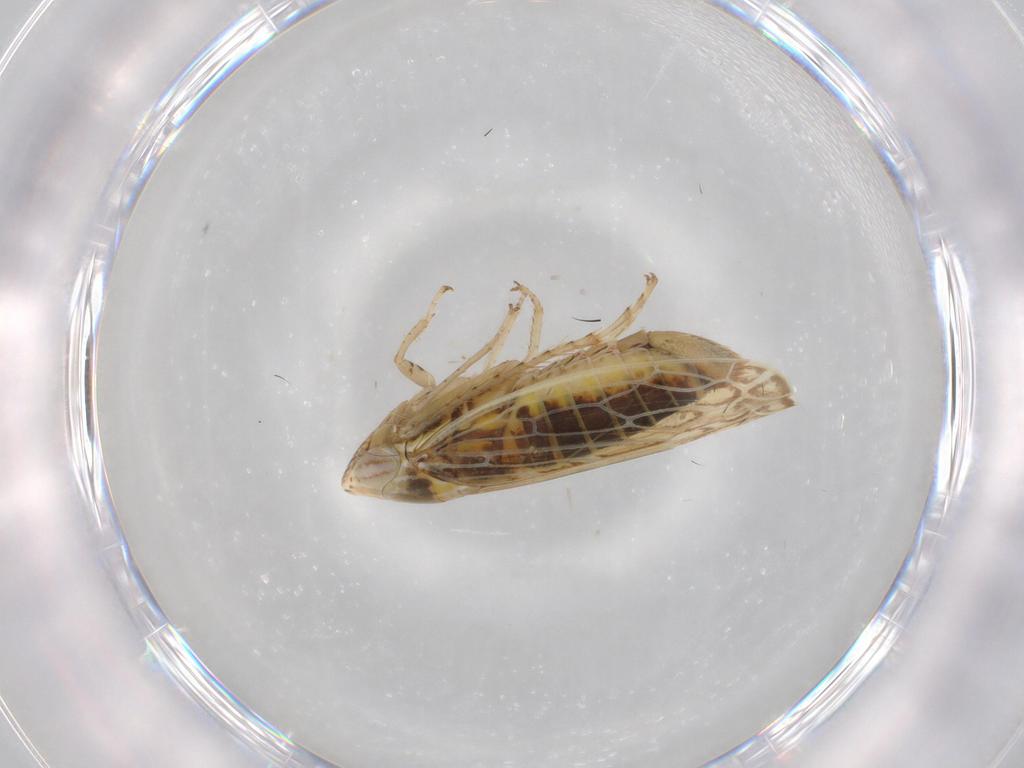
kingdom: Animalia
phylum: Arthropoda
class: Insecta
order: Hemiptera
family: Cicadellidae
